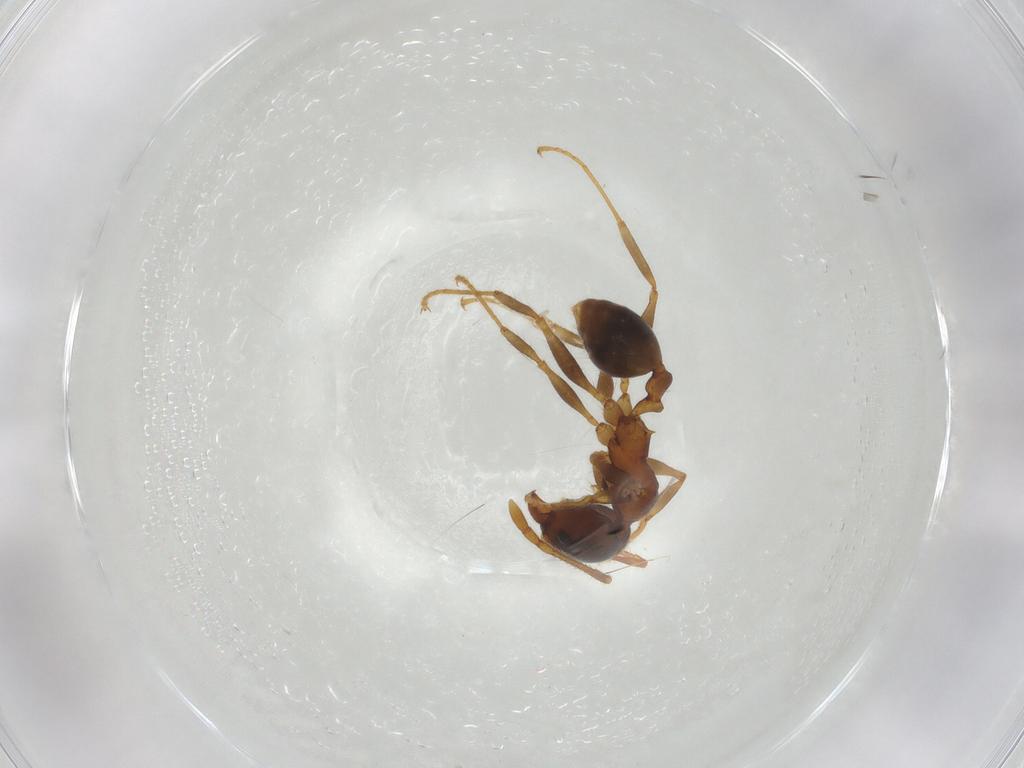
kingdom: Animalia
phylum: Arthropoda
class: Insecta
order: Hymenoptera
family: Formicidae
